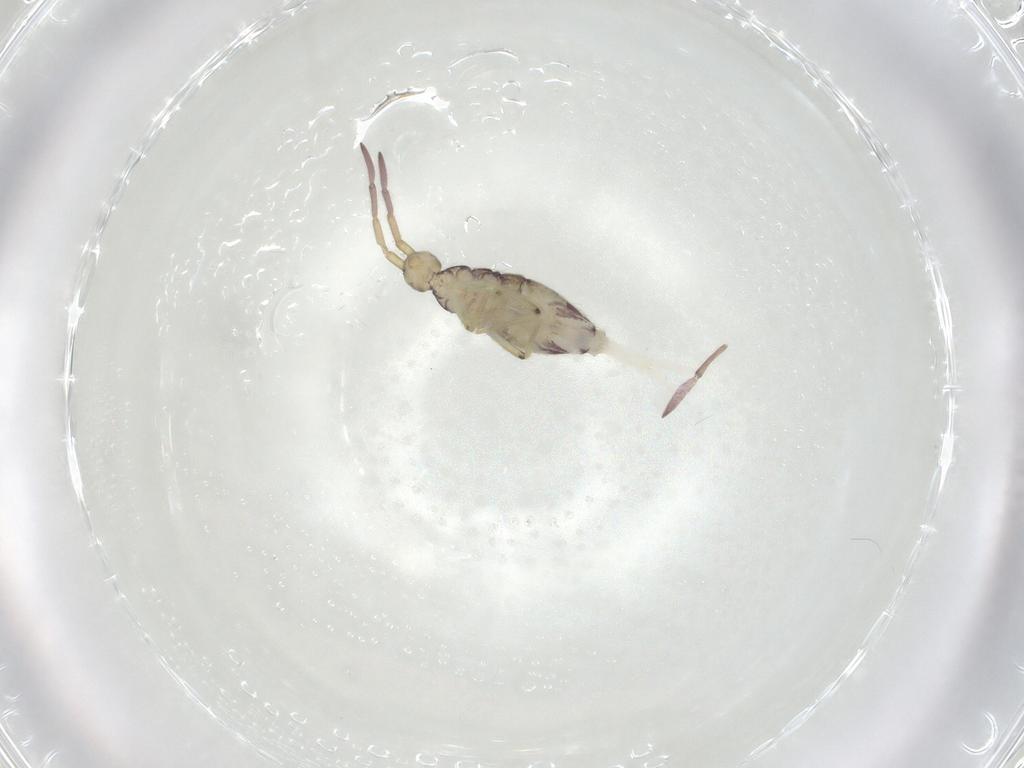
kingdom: Animalia
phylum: Arthropoda
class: Collembola
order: Entomobryomorpha
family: Entomobryidae
